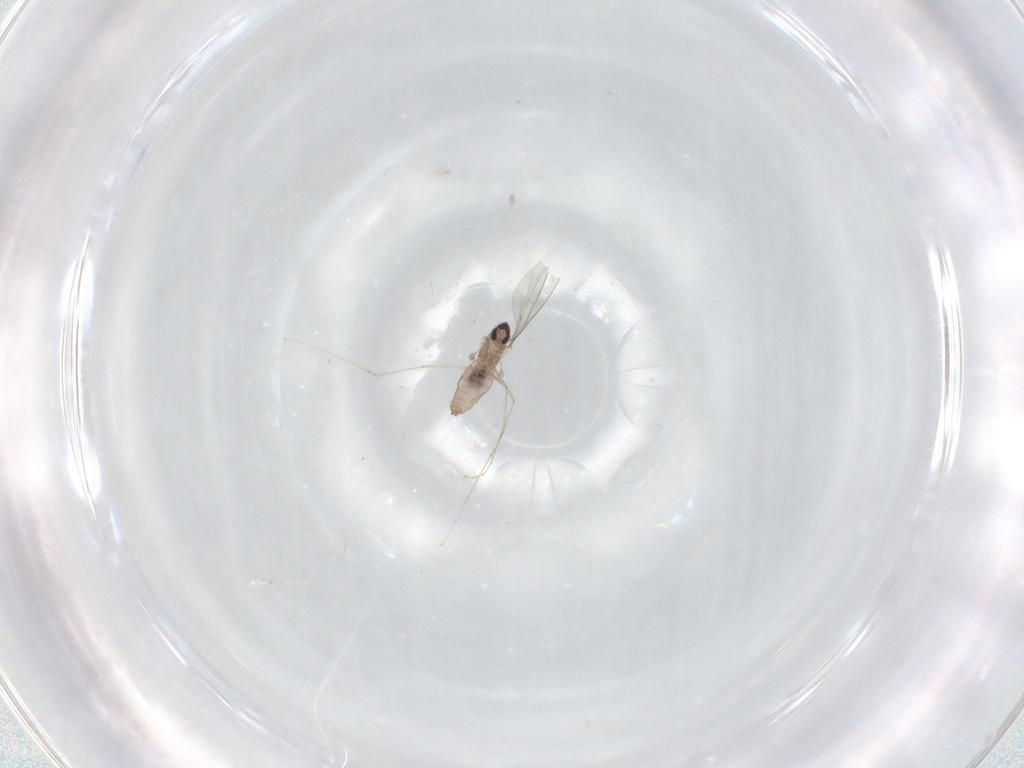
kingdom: Animalia
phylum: Arthropoda
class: Insecta
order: Diptera
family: Cecidomyiidae
